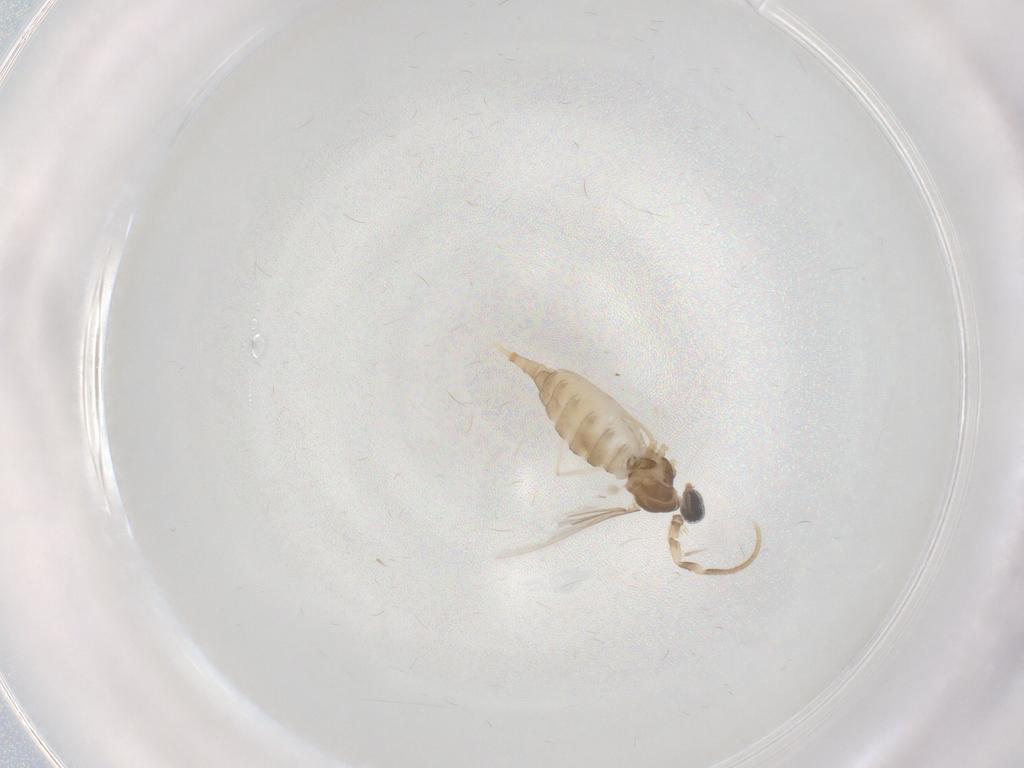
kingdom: Animalia
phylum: Arthropoda
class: Insecta
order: Diptera
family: Cecidomyiidae
